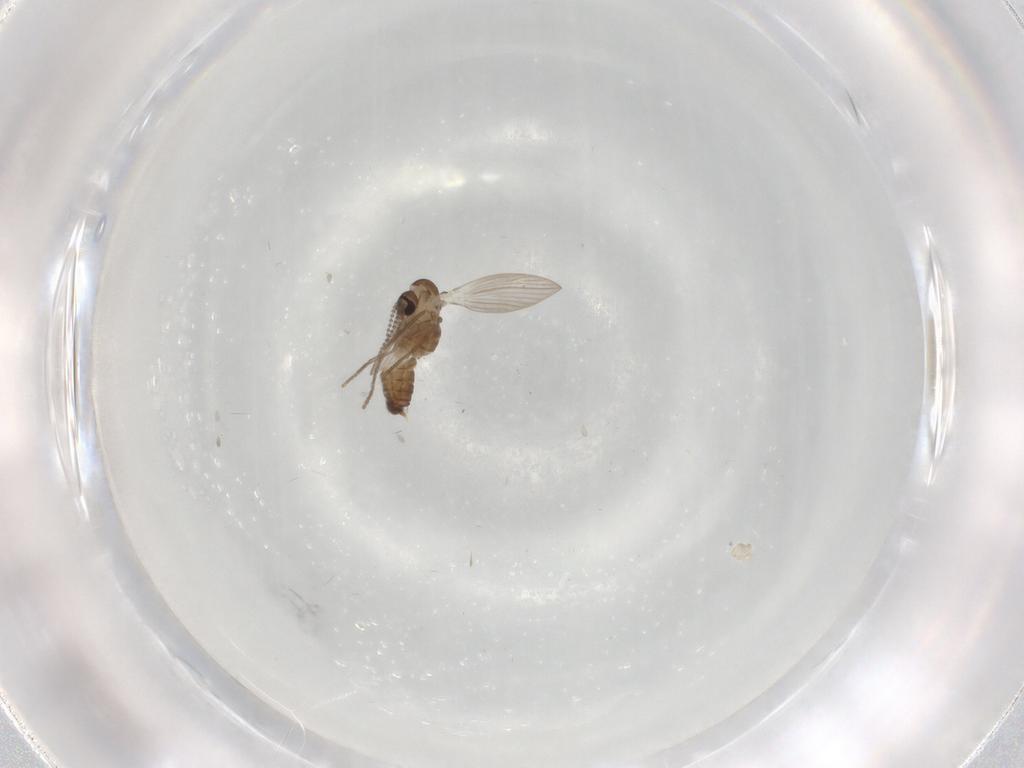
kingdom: Animalia
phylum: Arthropoda
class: Insecta
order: Diptera
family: Psychodidae
